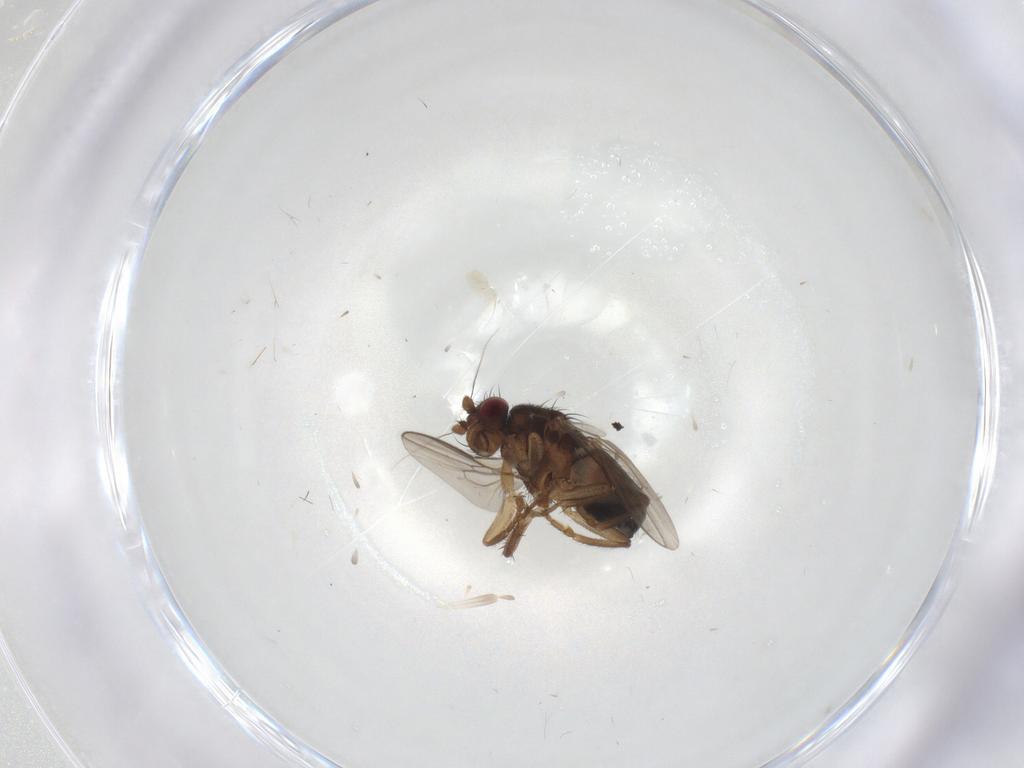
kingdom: Animalia
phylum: Arthropoda
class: Insecta
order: Diptera
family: Sphaeroceridae
